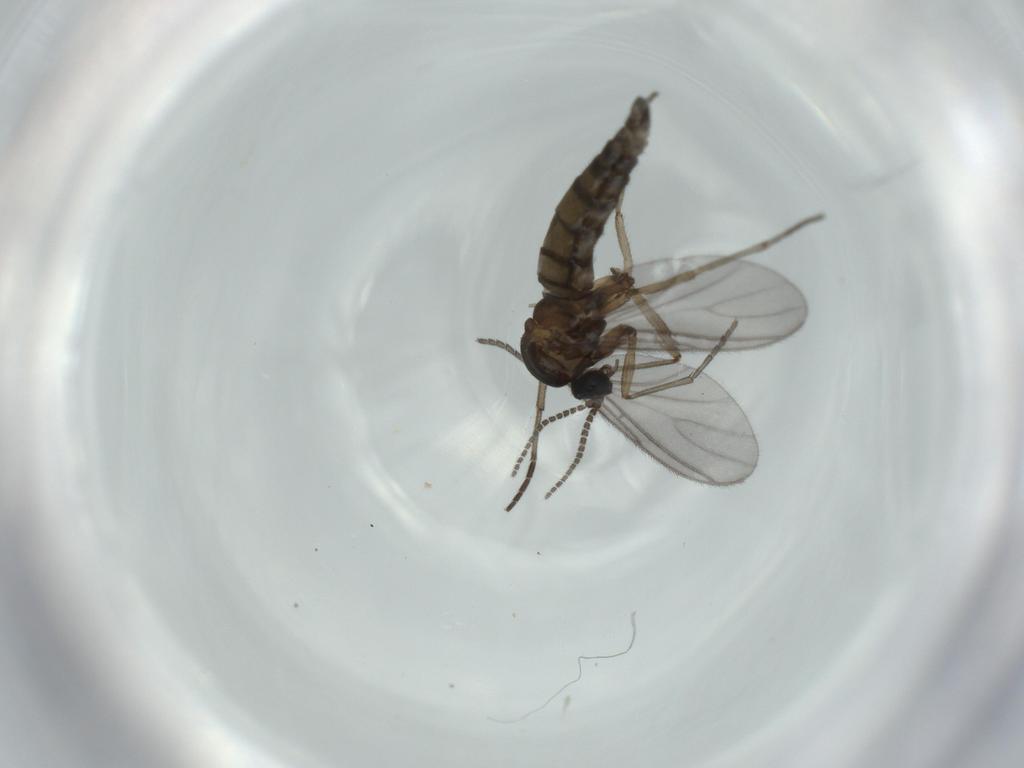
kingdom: Animalia
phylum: Arthropoda
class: Insecta
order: Diptera
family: Sciaridae
